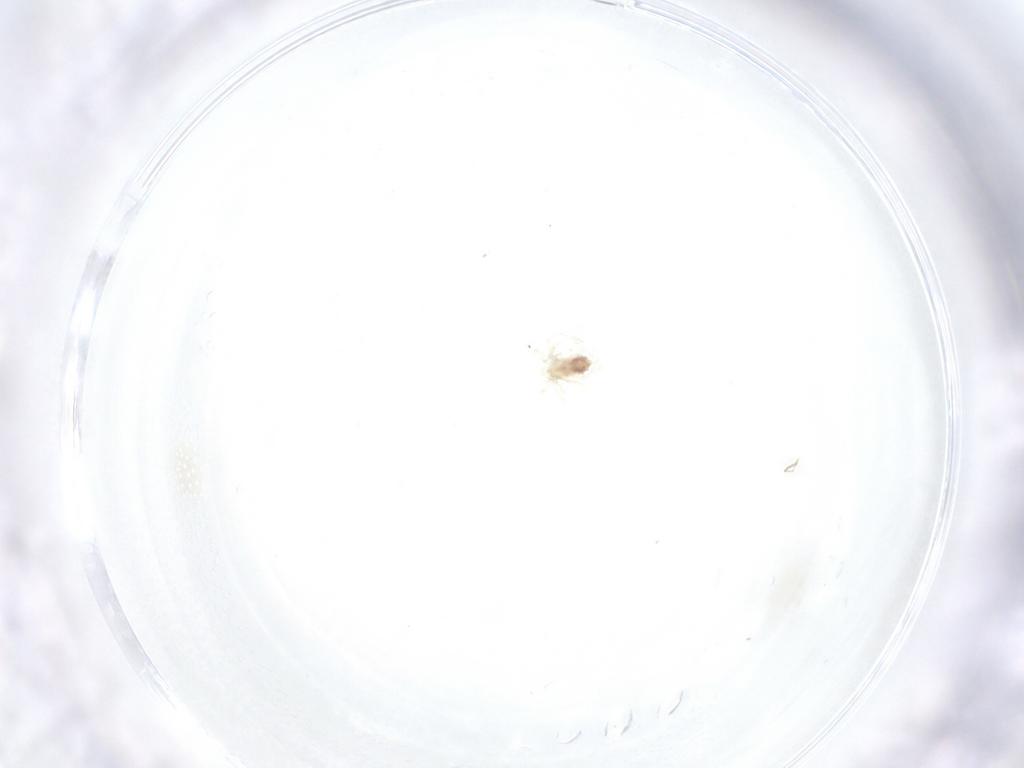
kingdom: Animalia
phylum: Arthropoda
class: Arachnida
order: Trombidiformes
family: Anystidae
